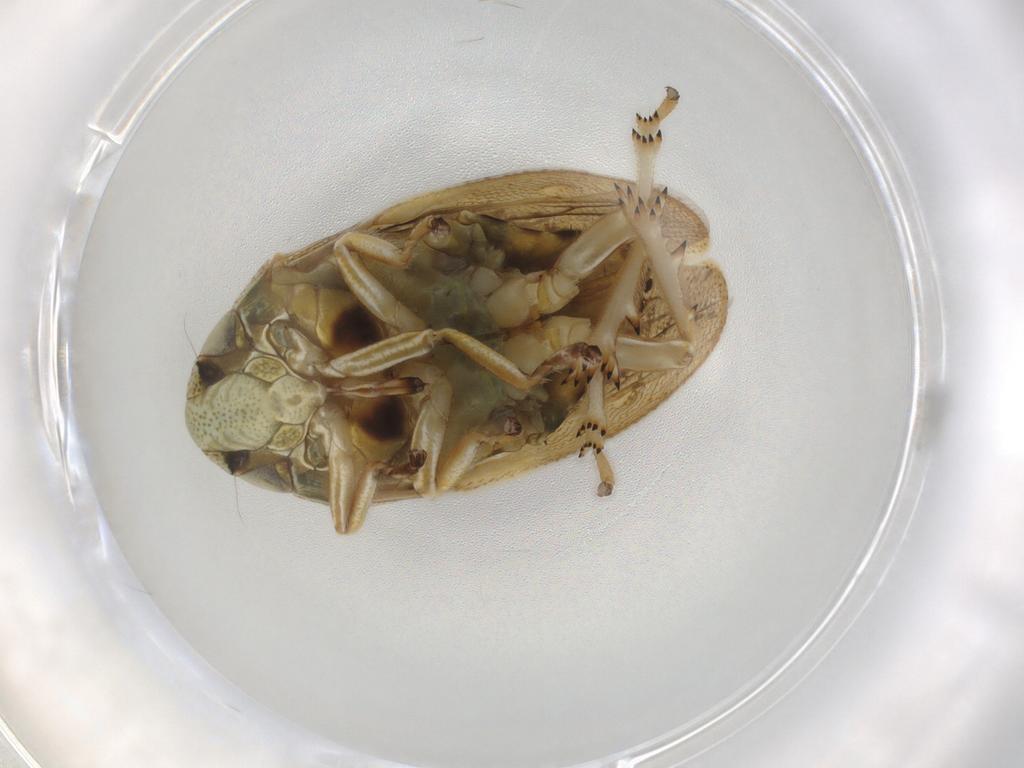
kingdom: Animalia
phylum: Arthropoda
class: Insecta
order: Hemiptera
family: Clastopteridae
